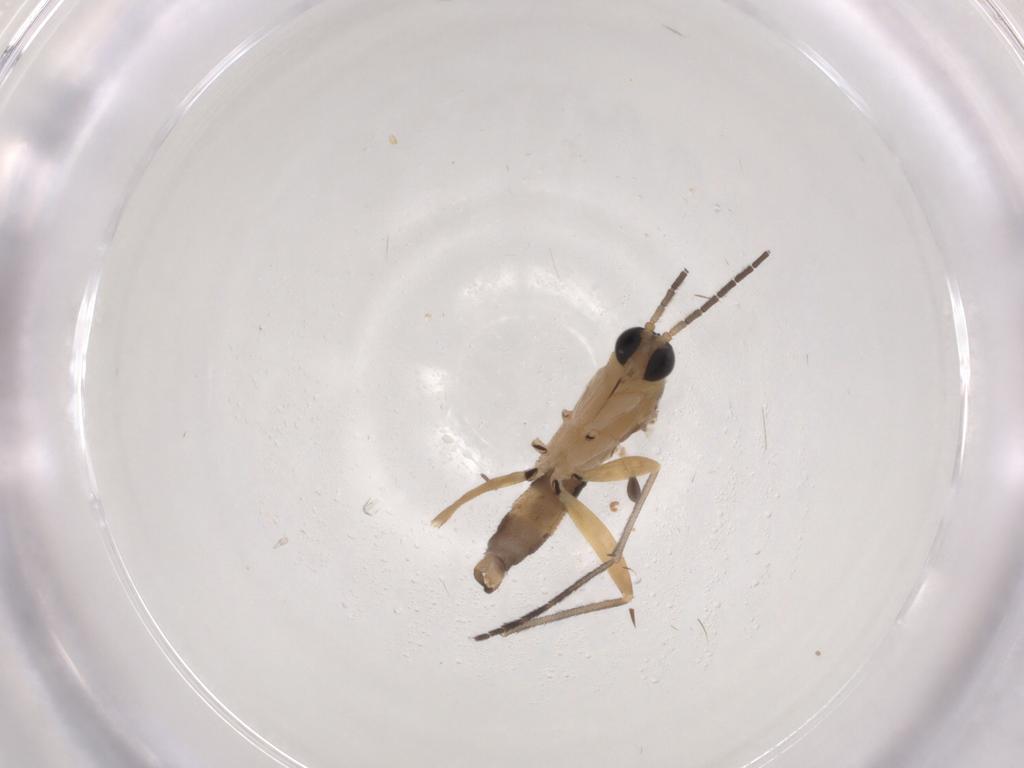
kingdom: Animalia
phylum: Arthropoda
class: Insecta
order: Diptera
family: Sciaridae
